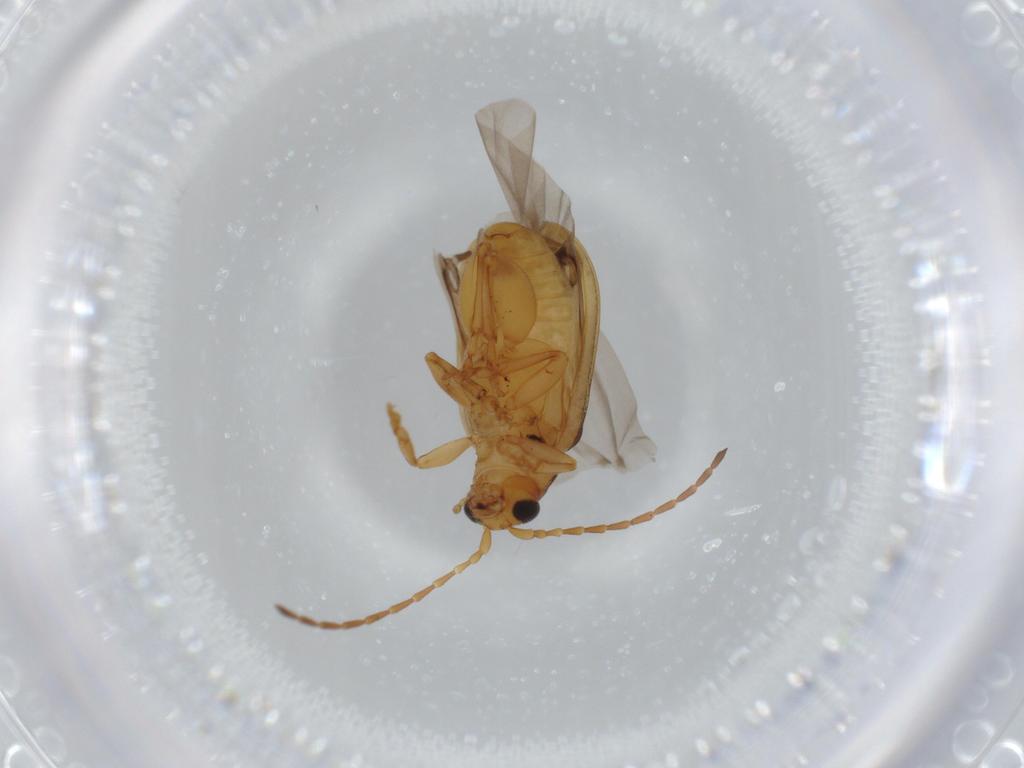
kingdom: Animalia
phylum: Arthropoda
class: Insecta
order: Coleoptera
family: Chrysomelidae
